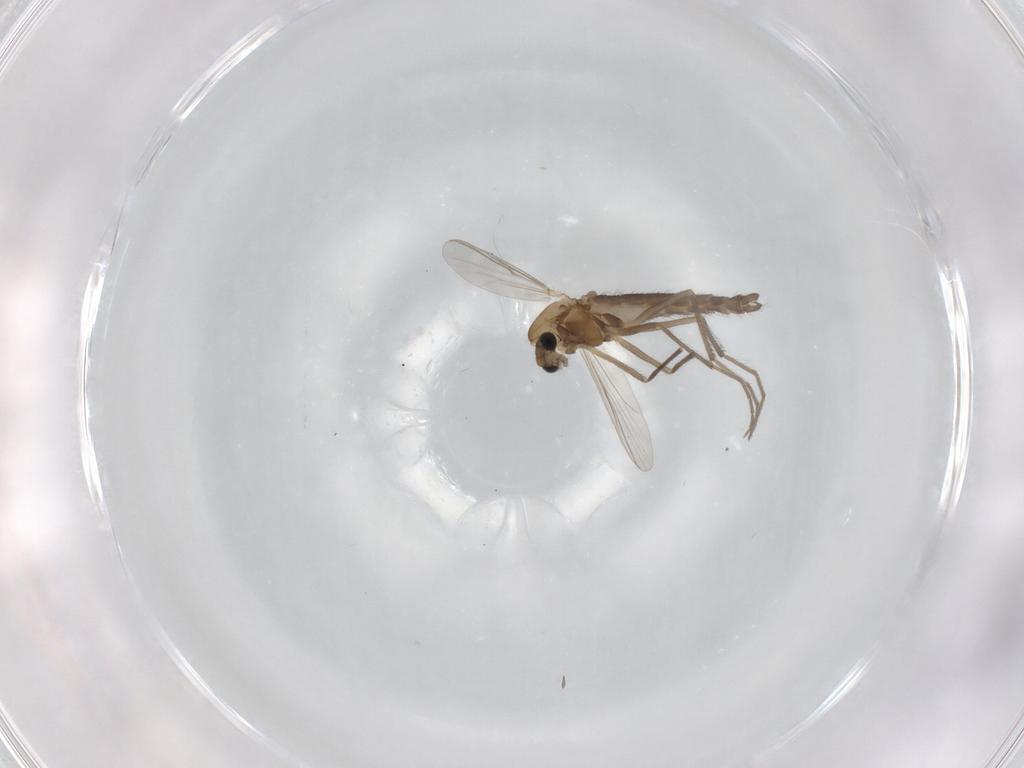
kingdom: Animalia
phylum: Arthropoda
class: Insecta
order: Diptera
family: Chironomidae
